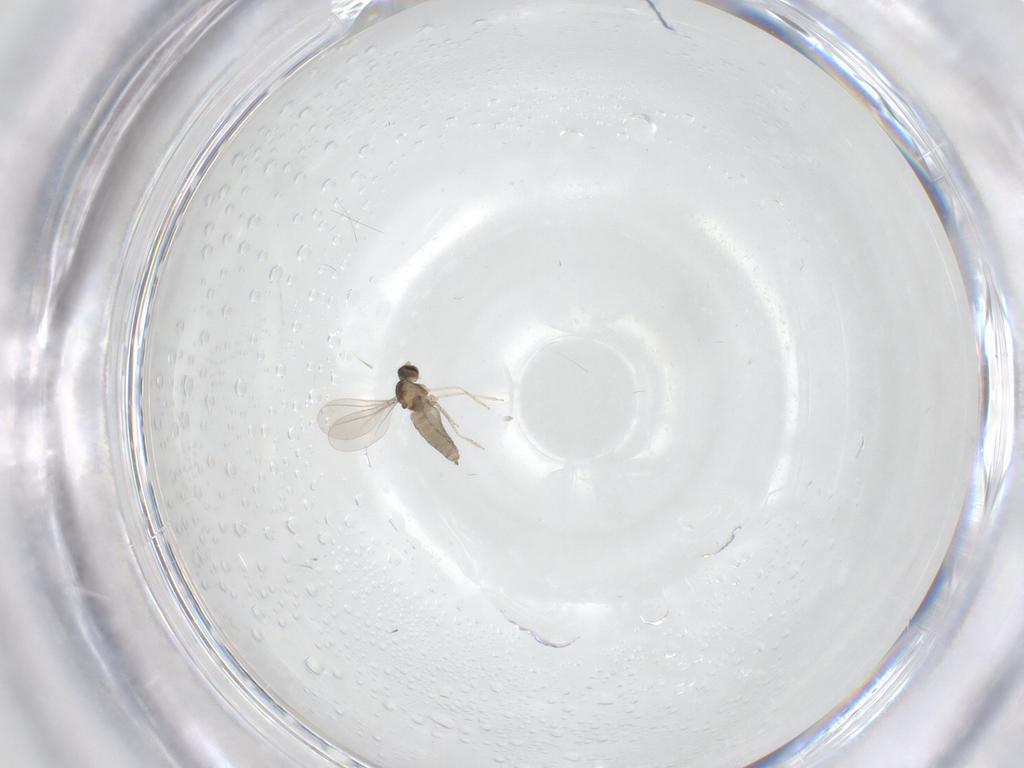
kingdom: Animalia
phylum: Arthropoda
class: Insecta
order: Diptera
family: Cecidomyiidae
